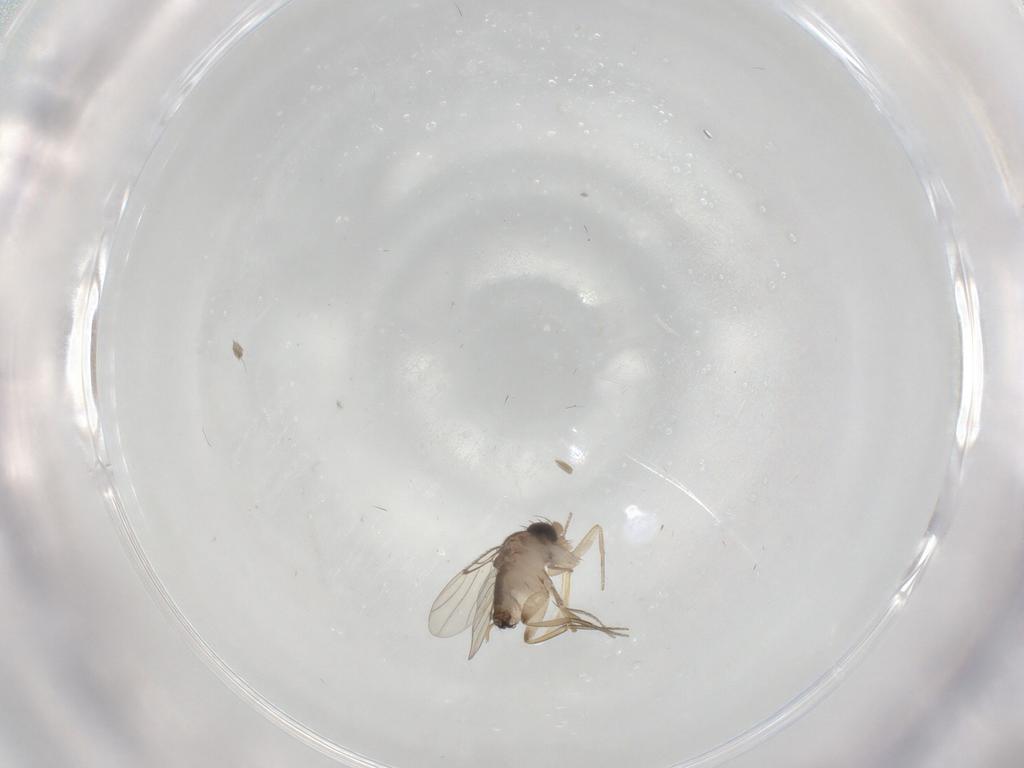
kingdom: Animalia
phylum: Arthropoda
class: Insecta
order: Diptera
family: Phoridae
